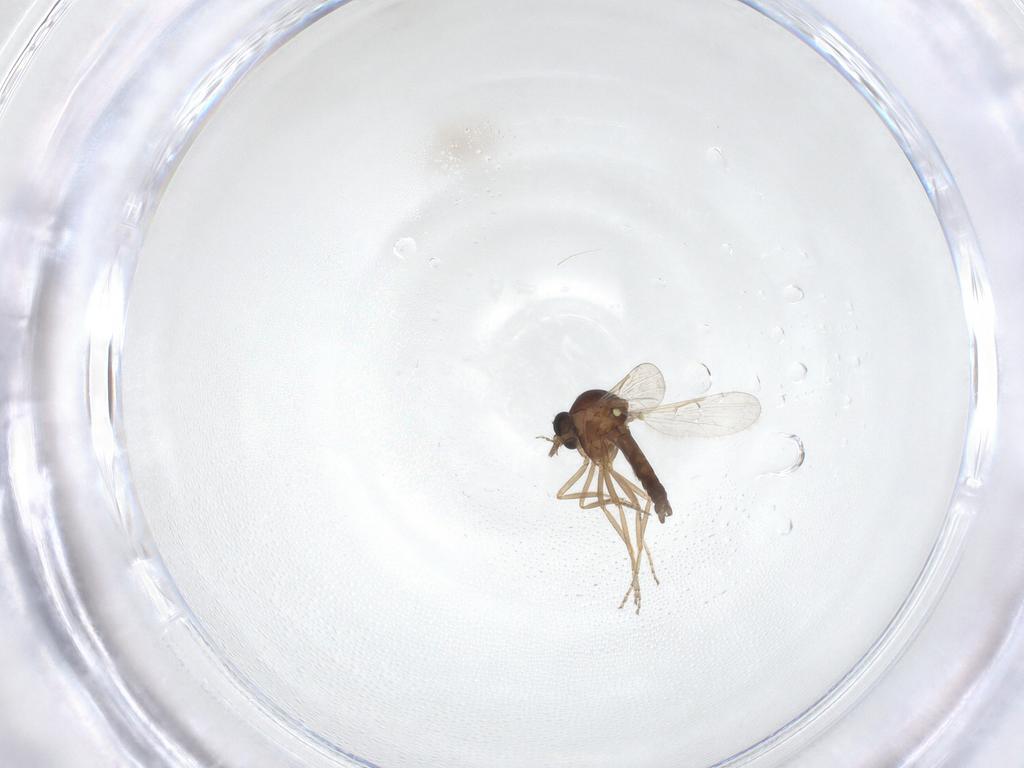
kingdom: Animalia
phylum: Arthropoda
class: Insecta
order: Diptera
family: Ceratopogonidae
